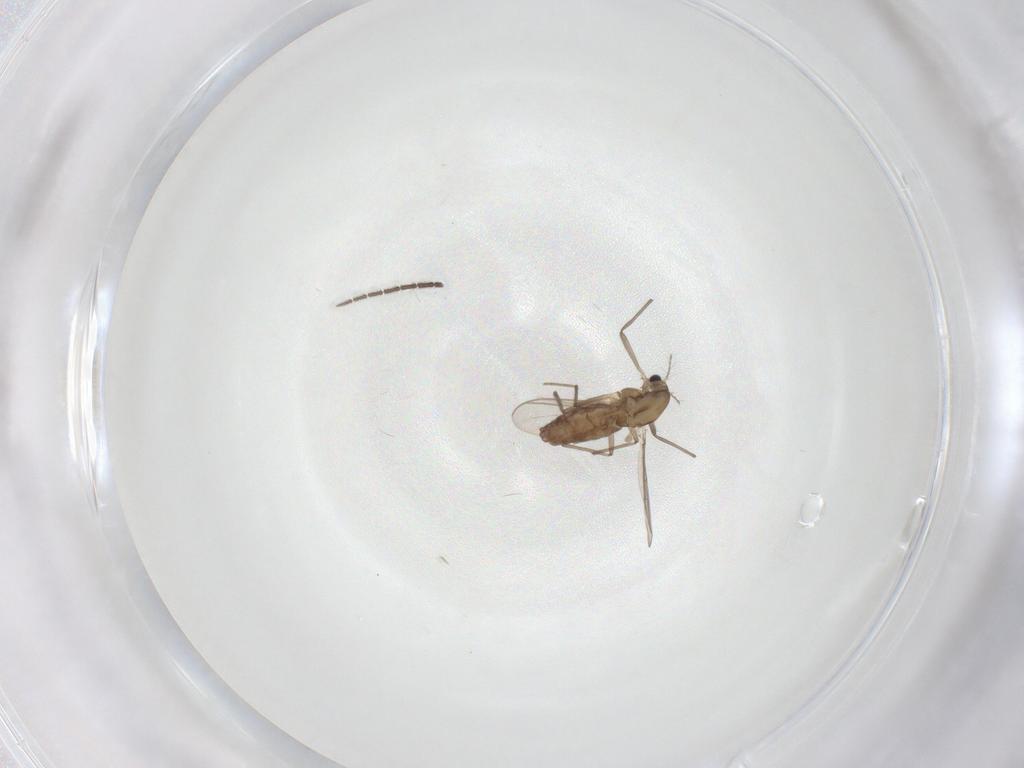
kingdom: Animalia
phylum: Arthropoda
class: Insecta
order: Diptera
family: Chironomidae
